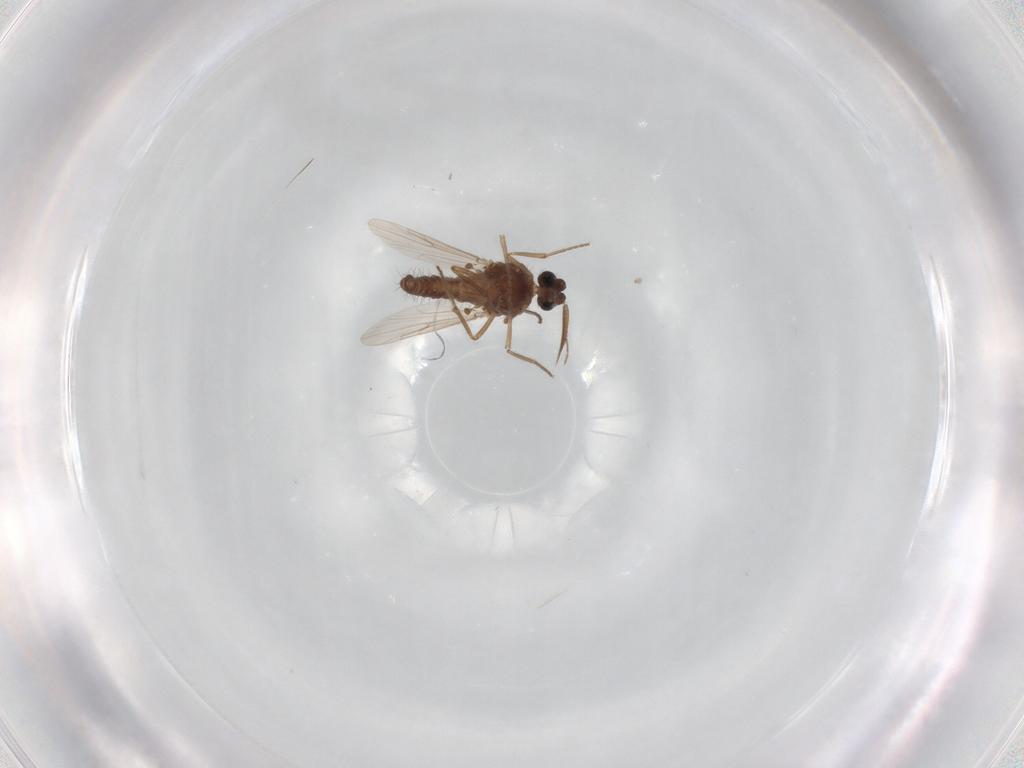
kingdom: Animalia
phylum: Arthropoda
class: Insecta
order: Diptera
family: Ceratopogonidae
